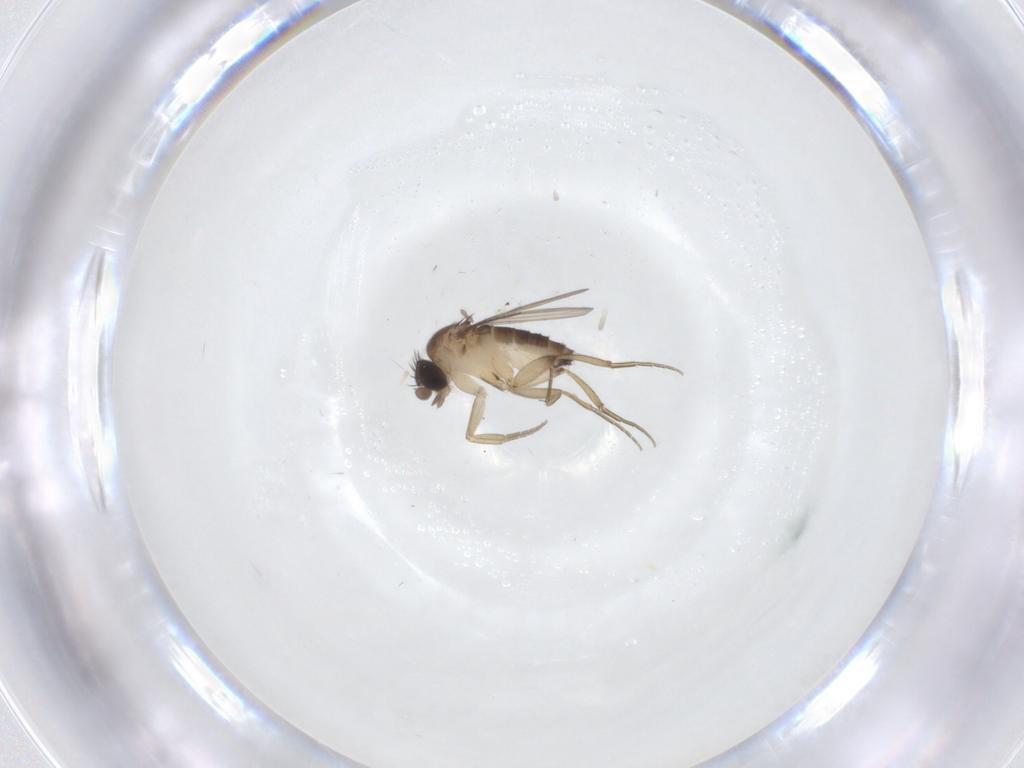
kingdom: Animalia
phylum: Arthropoda
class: Insecta
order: Diptera
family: Phoridae
